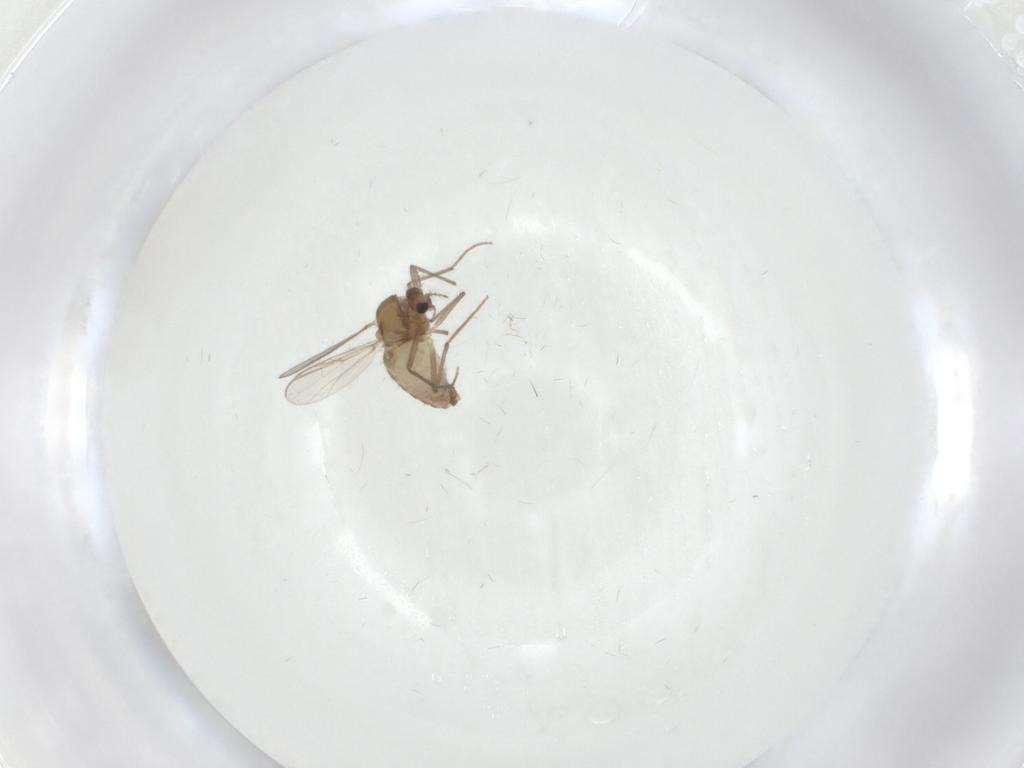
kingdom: Animalia
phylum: Arthropoda
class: Insecta
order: Diptera
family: Chironomidae
